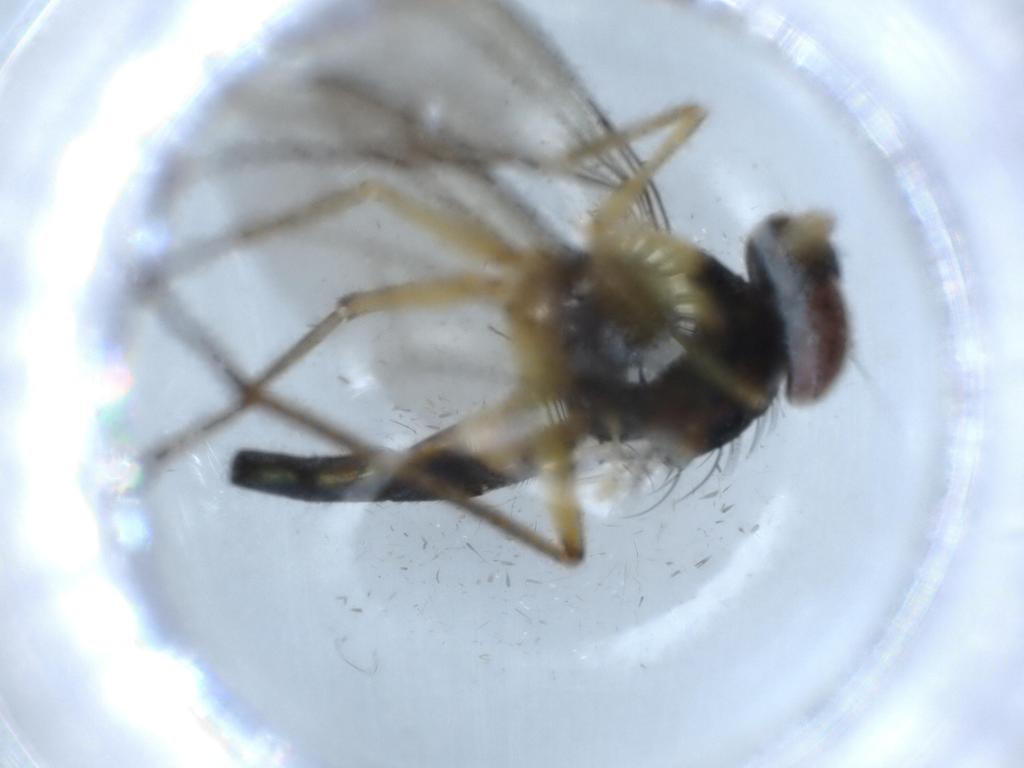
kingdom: Animalia
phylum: Arthropoda
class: Insecta
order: Diptera
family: Dolichopodidae
